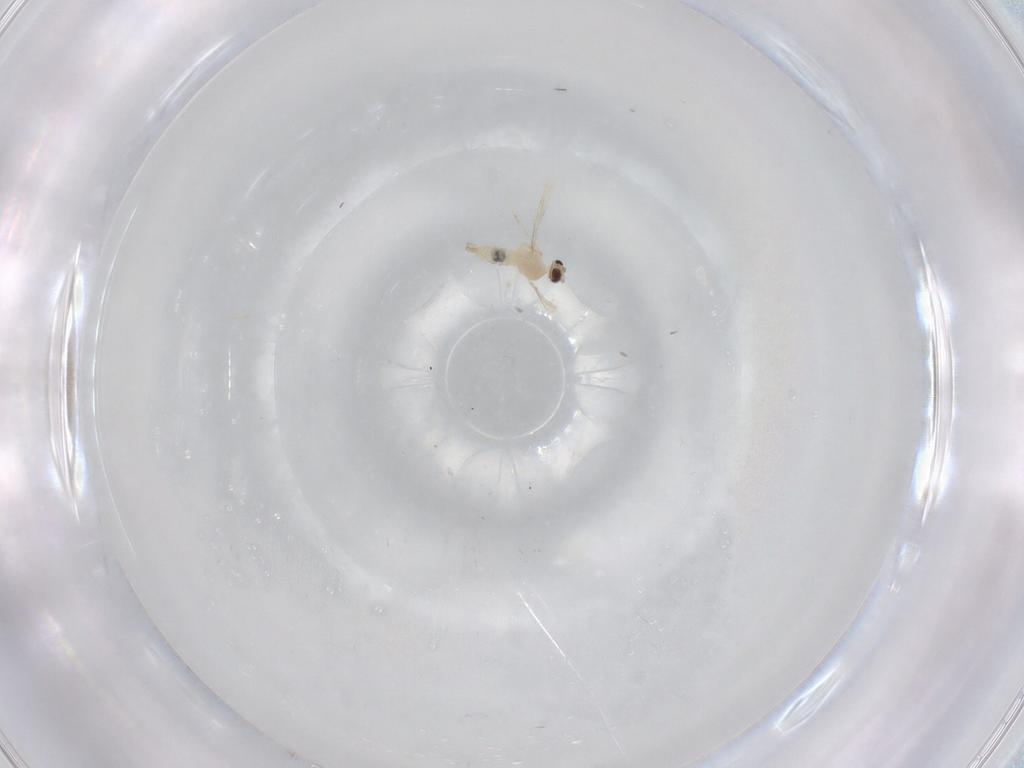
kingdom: Animalia
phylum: Arthropoda
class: Insecta
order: Diptera
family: Cecidomyiidae
